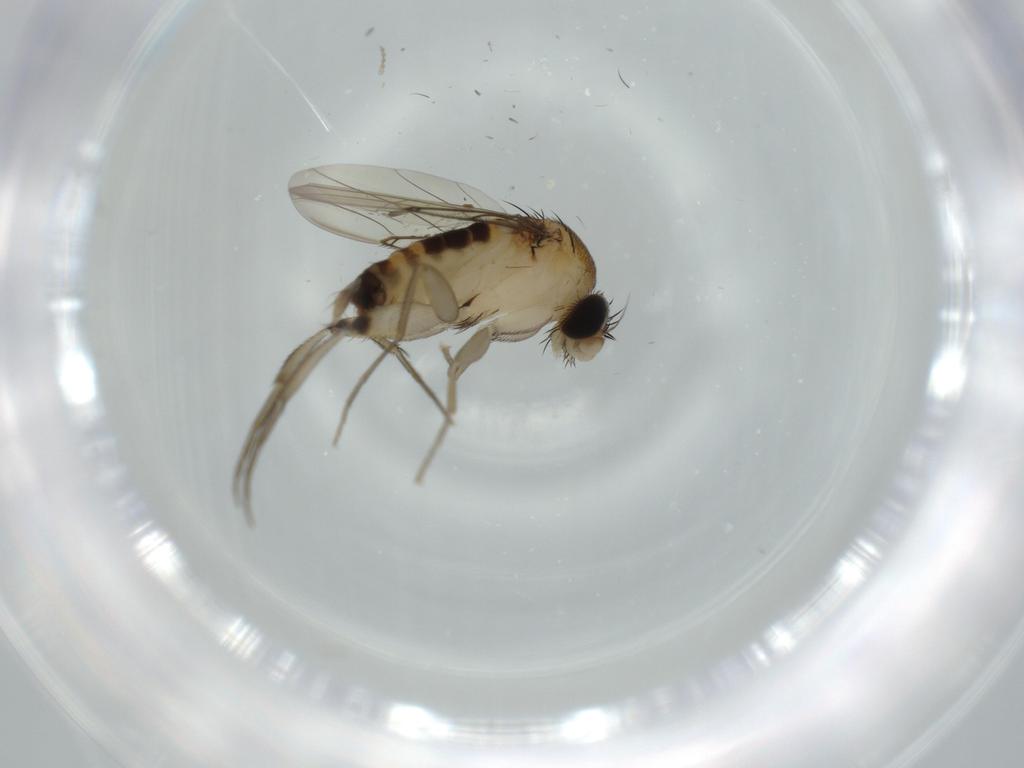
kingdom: Animalia
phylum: Arthropoda
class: Insecta
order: Diptera
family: Phoridae
